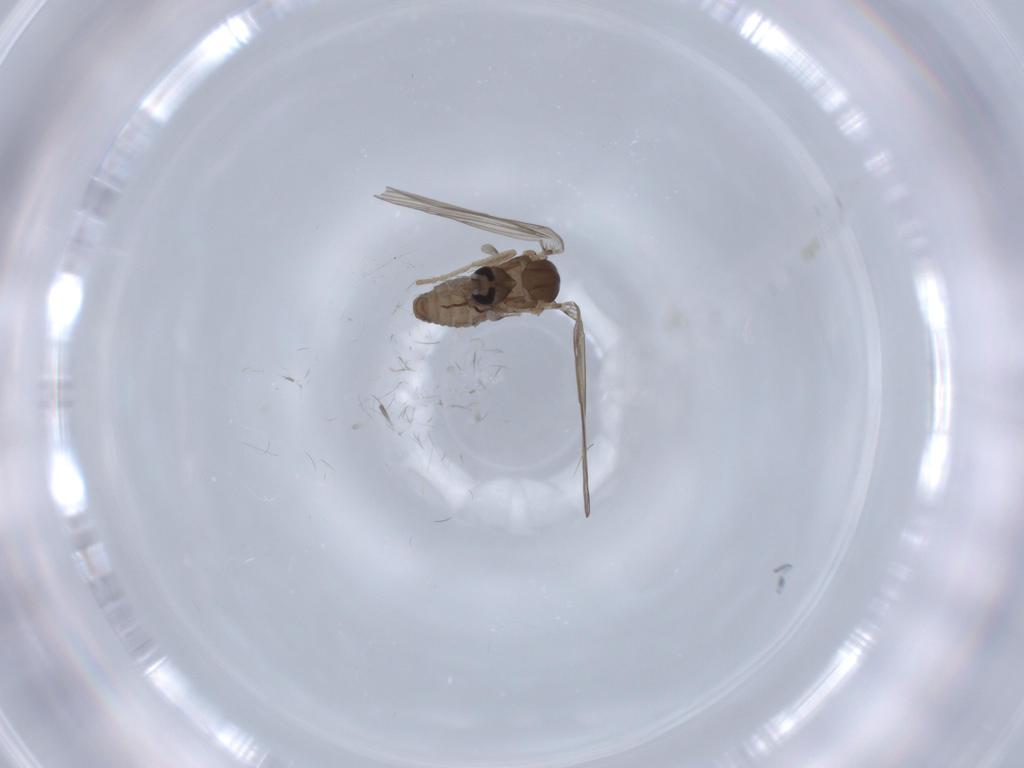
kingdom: Animalia
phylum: Arthropoda
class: Insecta
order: Diptera
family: Psychodidae
